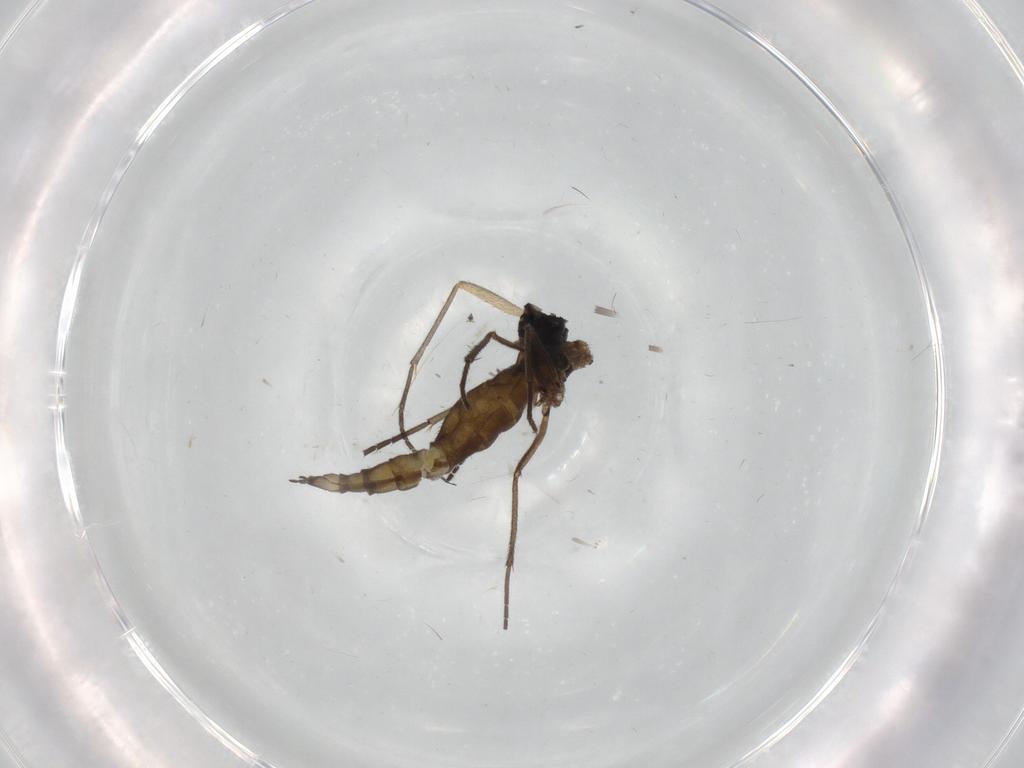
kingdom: Animalia
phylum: Arthropoda
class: Insecta
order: Diptera
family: Sciaridae
